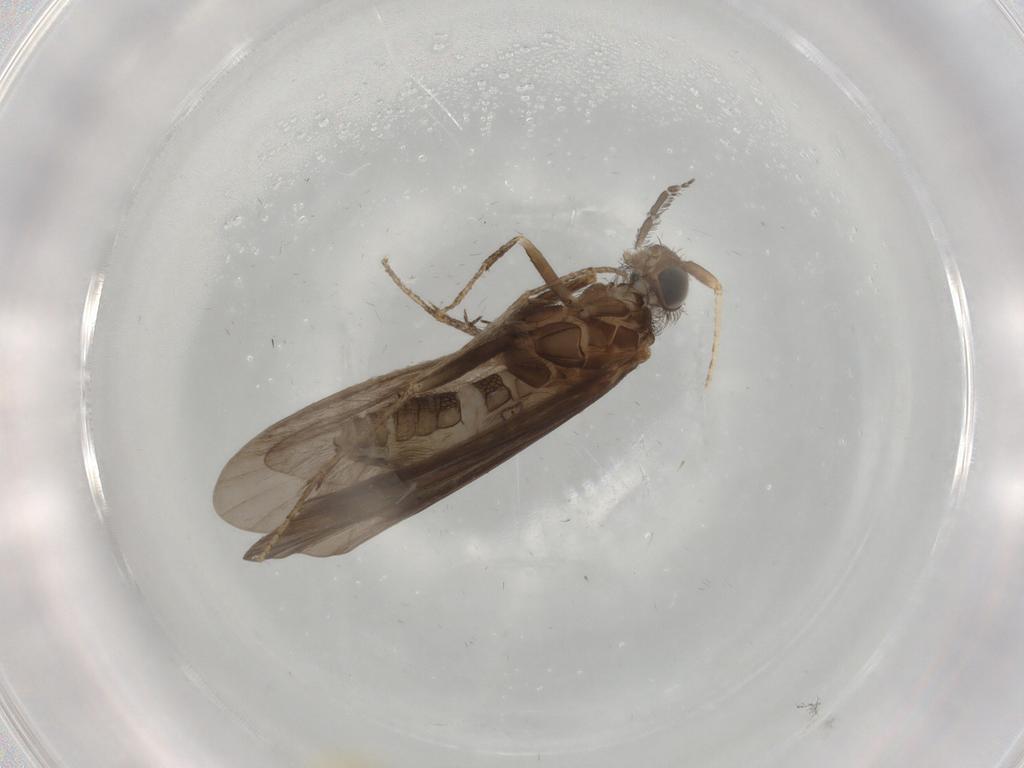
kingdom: Animalia
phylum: Arthropoda
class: Insecta
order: Trichoptera
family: Helicopsychidae
